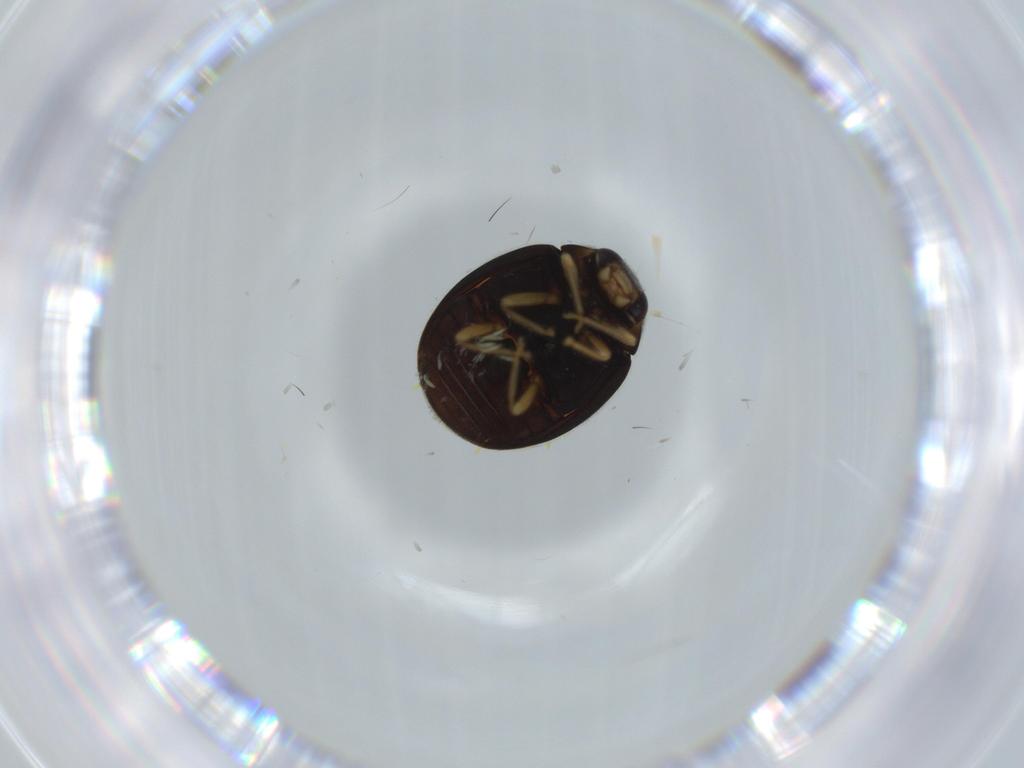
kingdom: Animalia
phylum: Arthropoda
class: Insecta
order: Coleoptera
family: Coccinellidae
